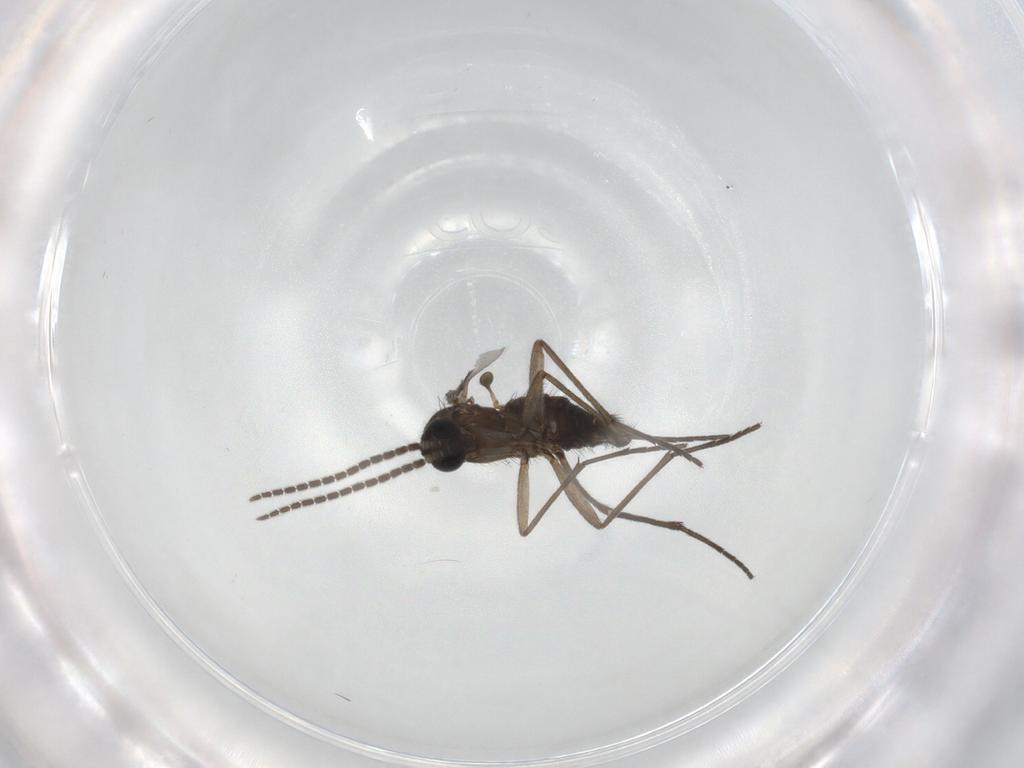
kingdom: Animalia
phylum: Arthropoda
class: Insecta
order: Diptera
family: Sciaridae
